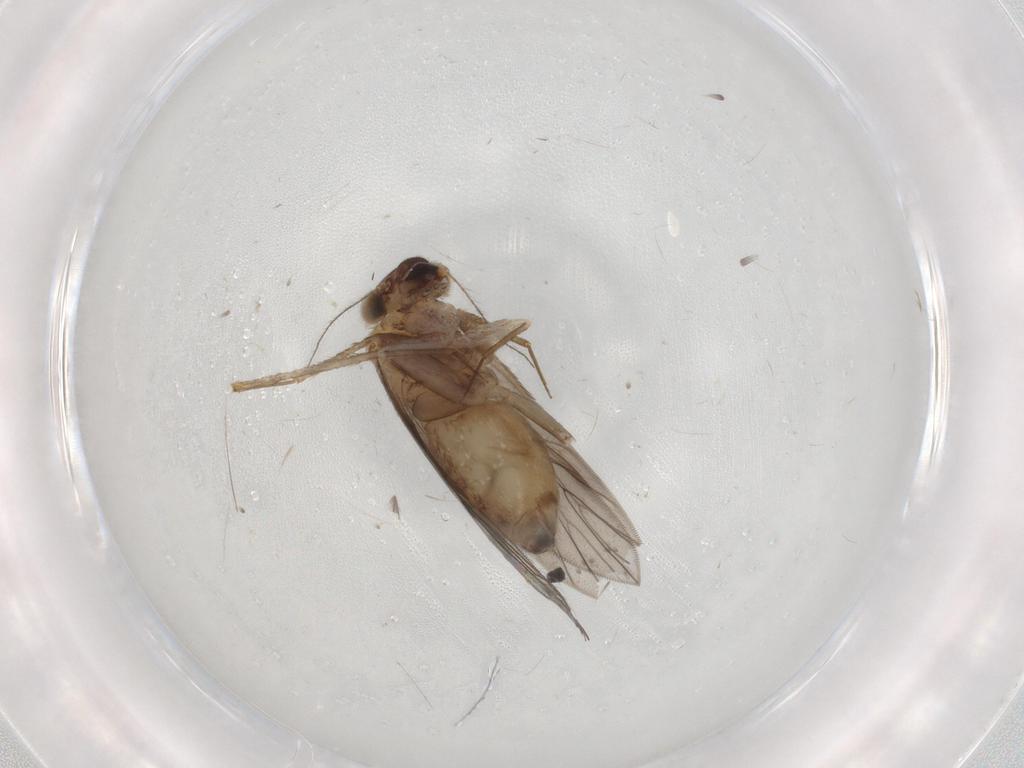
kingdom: Animalia
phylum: Arthropoda
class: Insecta
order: Psocodea
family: Lepidopsocidae
